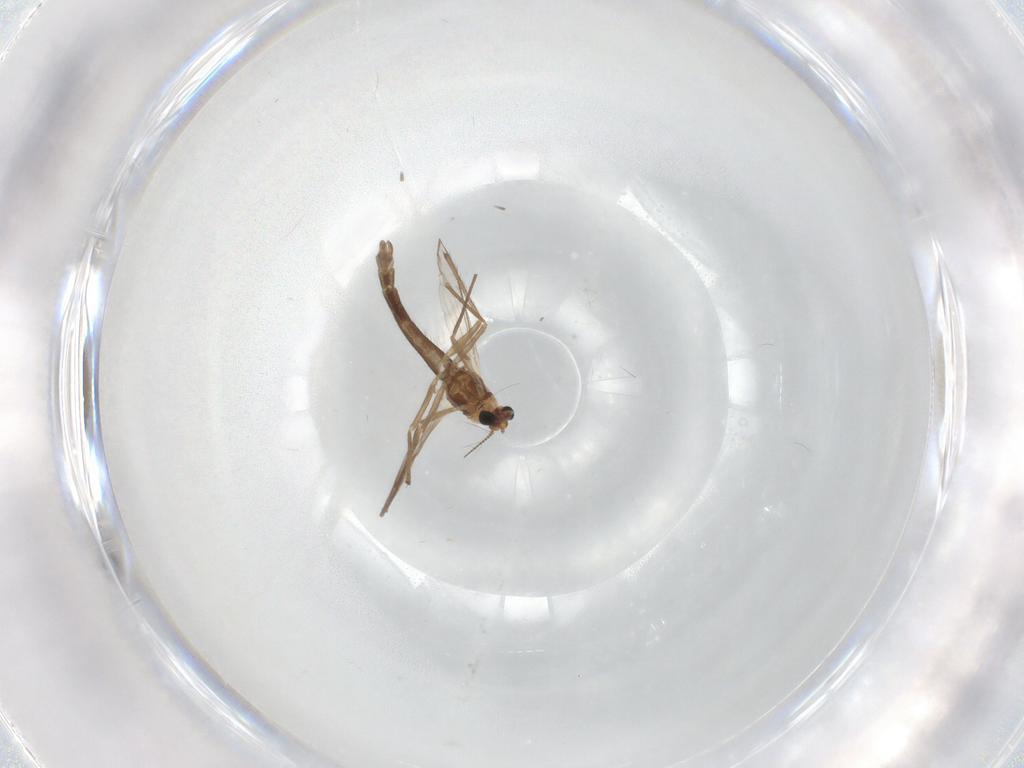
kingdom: Animalia
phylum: Arthropoda
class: Insecta
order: Diptera
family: Chironomidae
